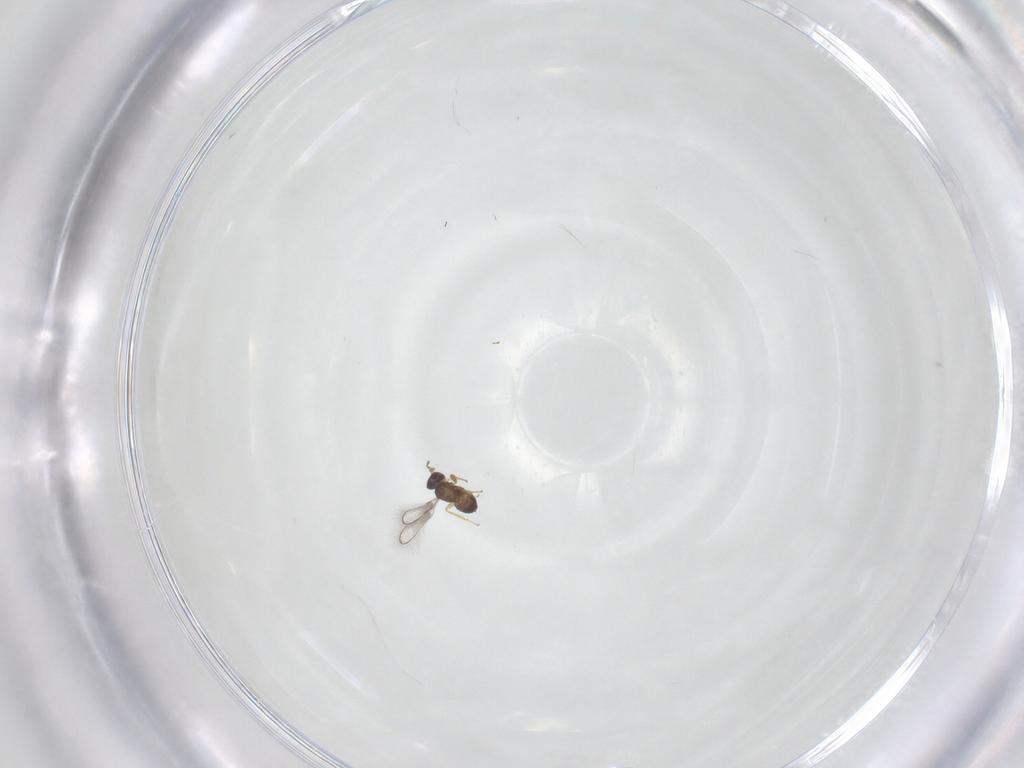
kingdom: Animalia
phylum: Arthropoda
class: Insecta
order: Hymenoptera
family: Mymaridae
